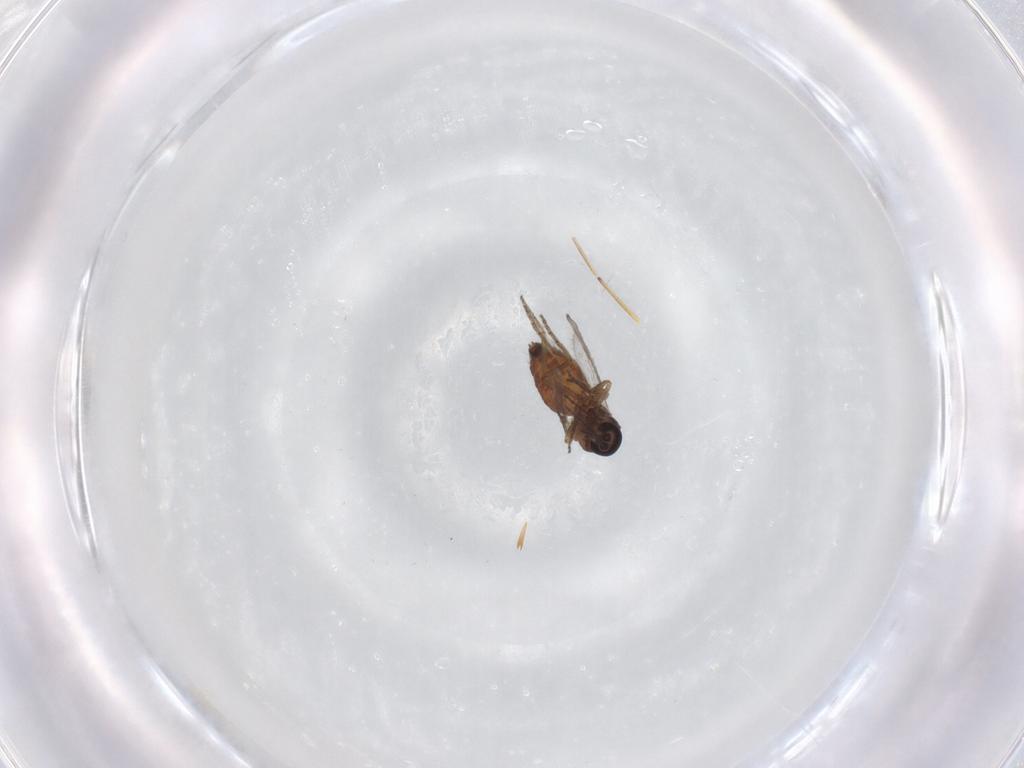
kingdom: Animalia
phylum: Arthropoda
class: Insecta
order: Diptera
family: Ceratopogonidae
